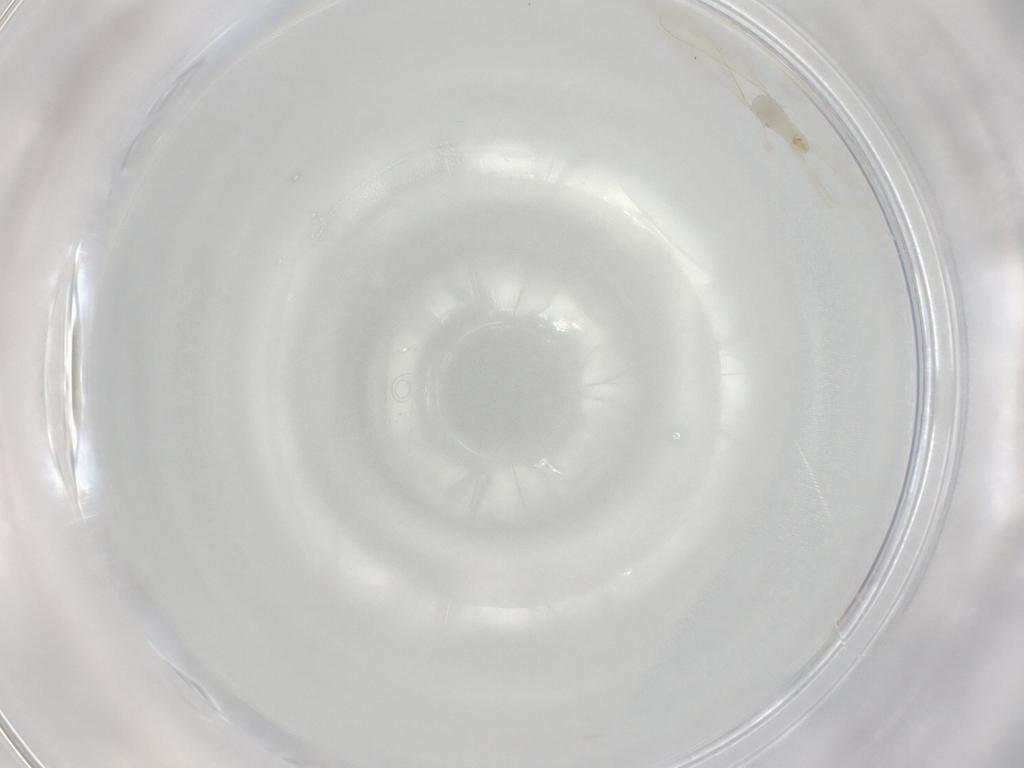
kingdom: Animalia
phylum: Arthropoda
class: Insecta
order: Diptera
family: Cecidomyiidae
